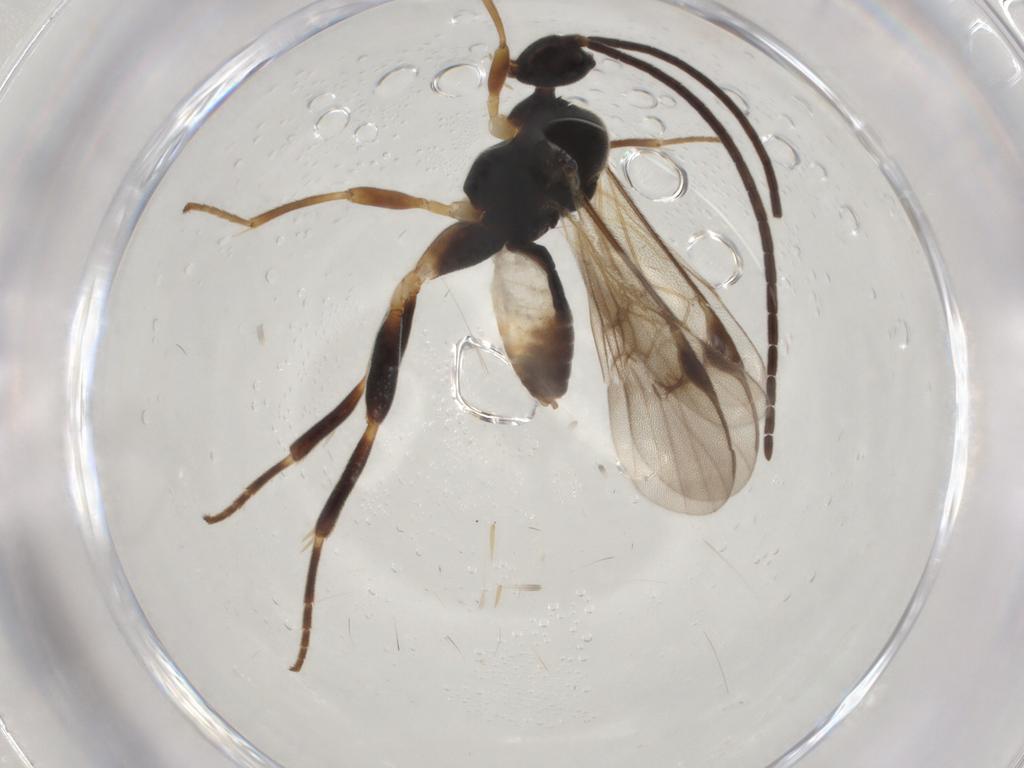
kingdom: Animalia
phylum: Arthropoda
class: Insecta
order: Hymenoptera
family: Braconidae
